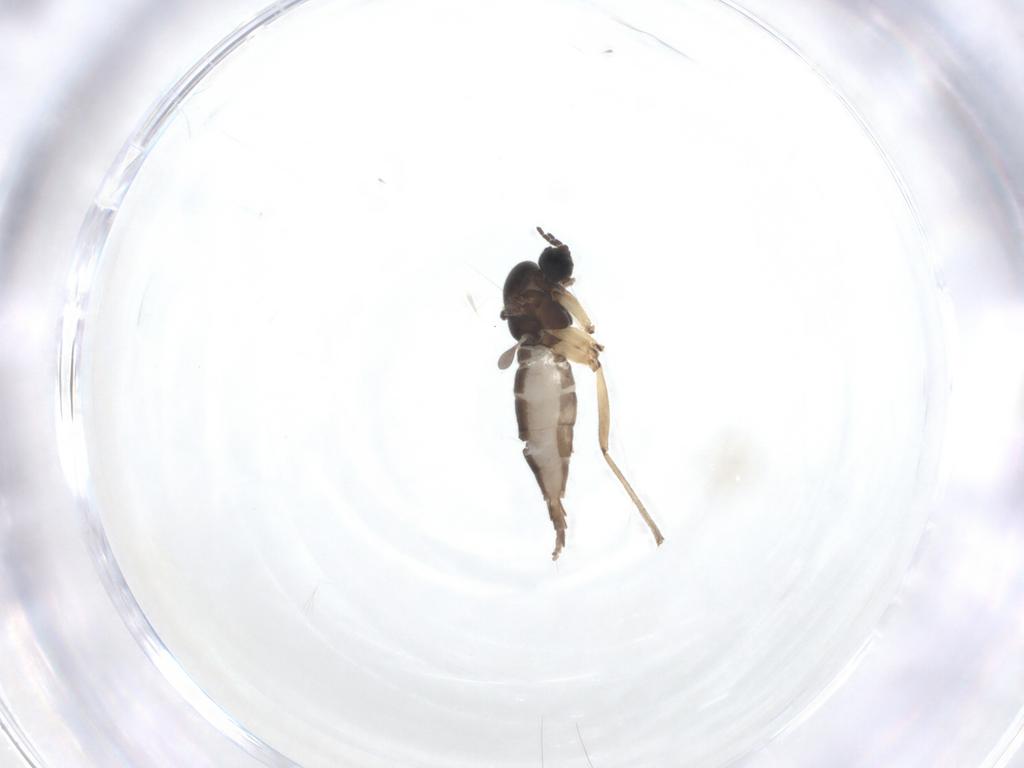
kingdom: Animalia
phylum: Arthropoda
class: Insecta
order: Diptera
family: Sciaridae
